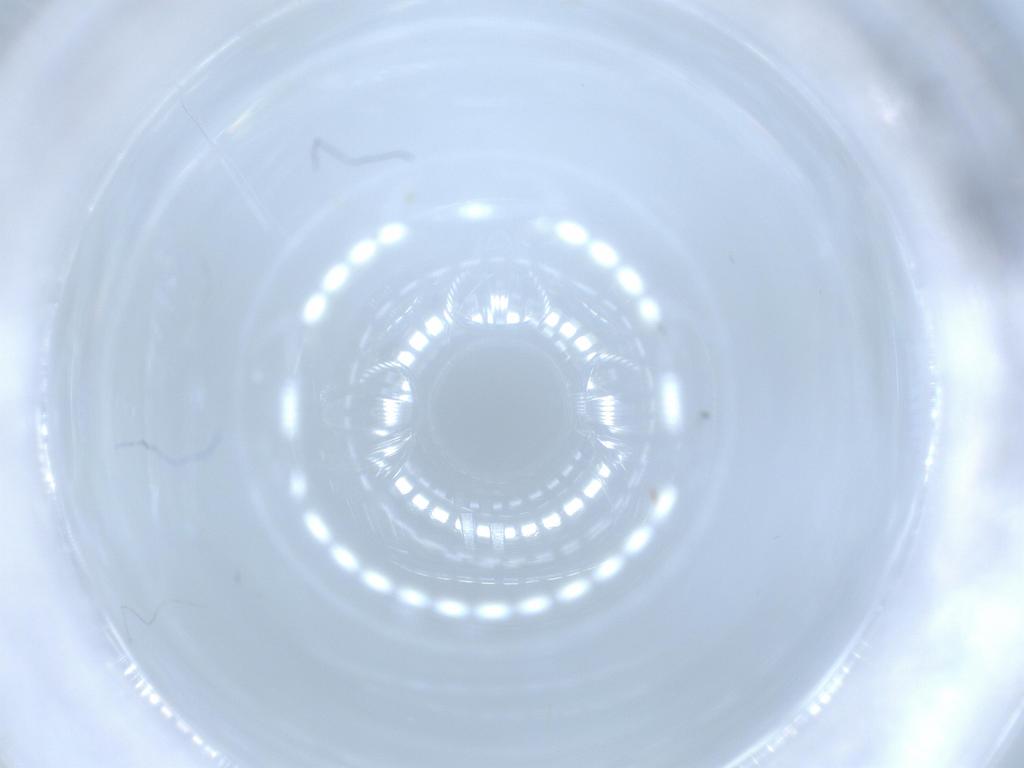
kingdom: Animalia
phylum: Arthropoda
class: Insecta
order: Diptera
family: Cecidomyiidae
